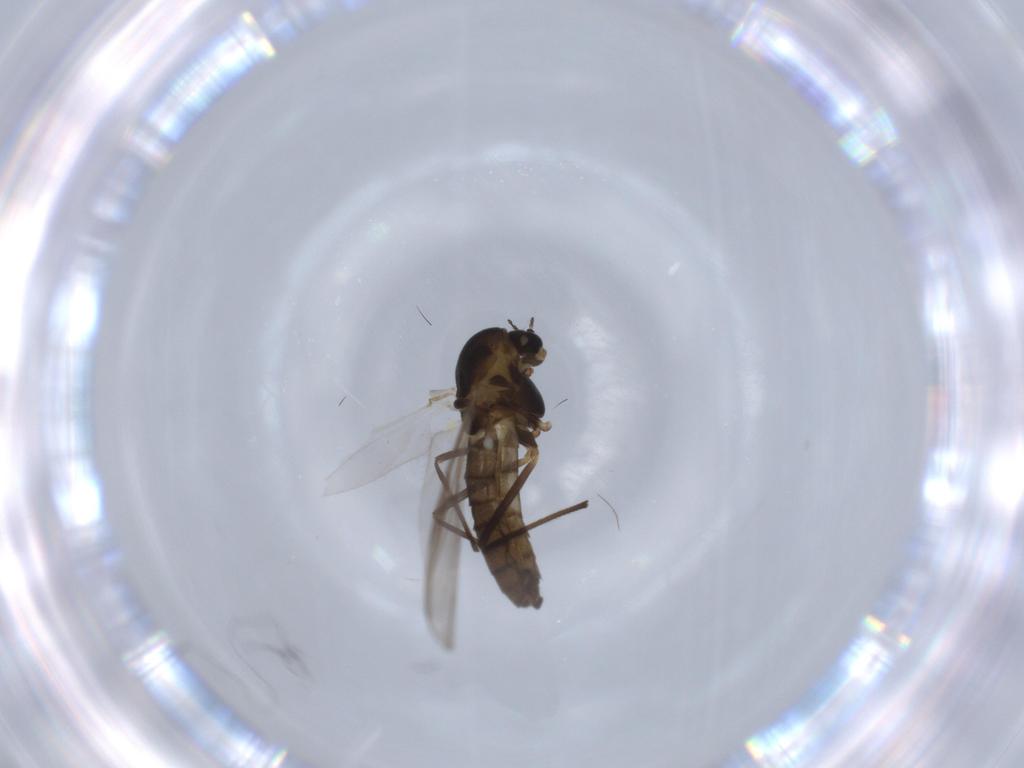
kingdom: Animalia
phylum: Arthropoda
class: Insecta
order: Diptera
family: Chironomidae
